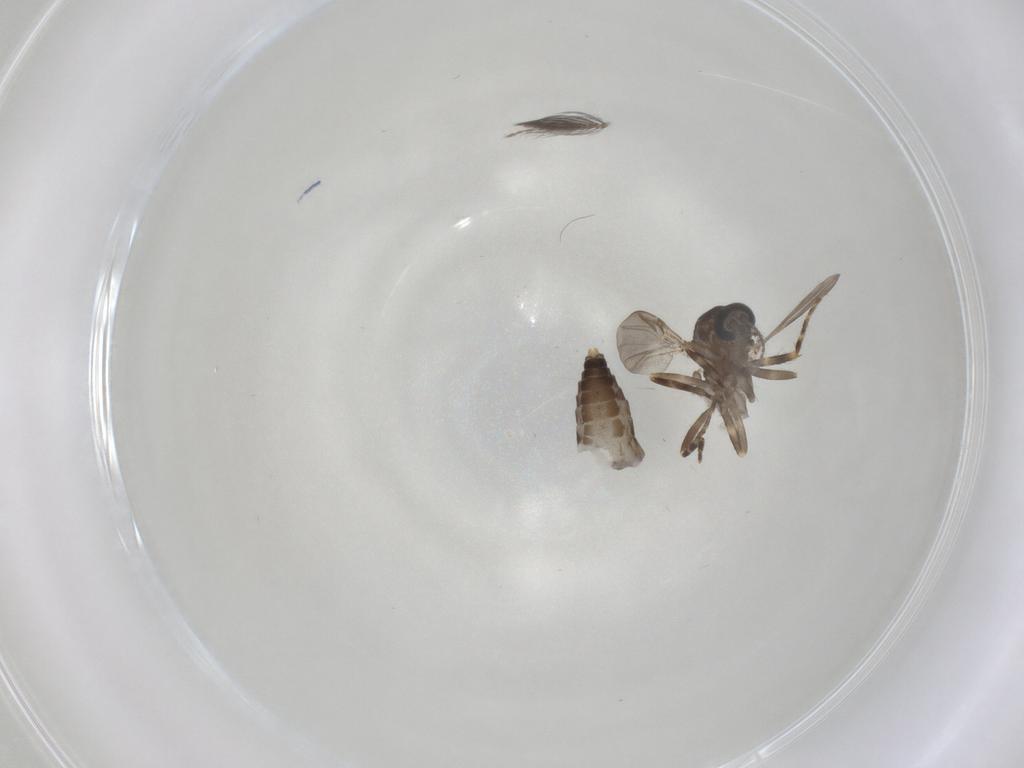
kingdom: Animalia
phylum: Arthropoda
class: Insecta
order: Diptera
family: Ceratopogonidae
